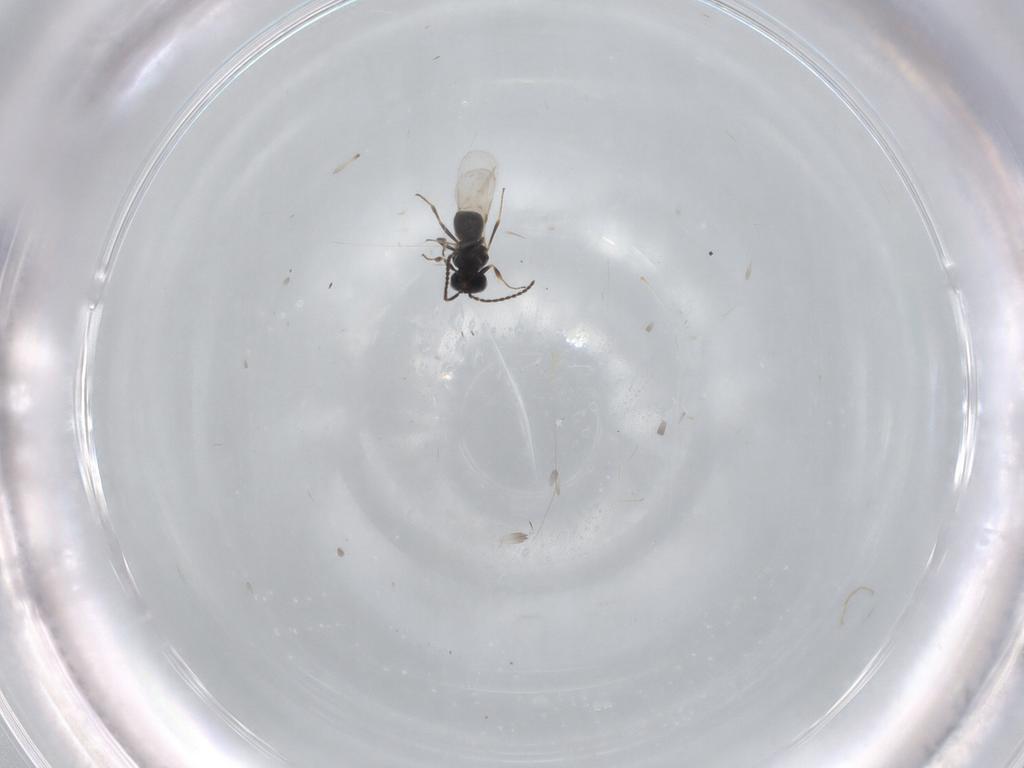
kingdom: Animalia
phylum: Arthropoda
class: Insecta
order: Hymenoptera
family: Scelionidae
